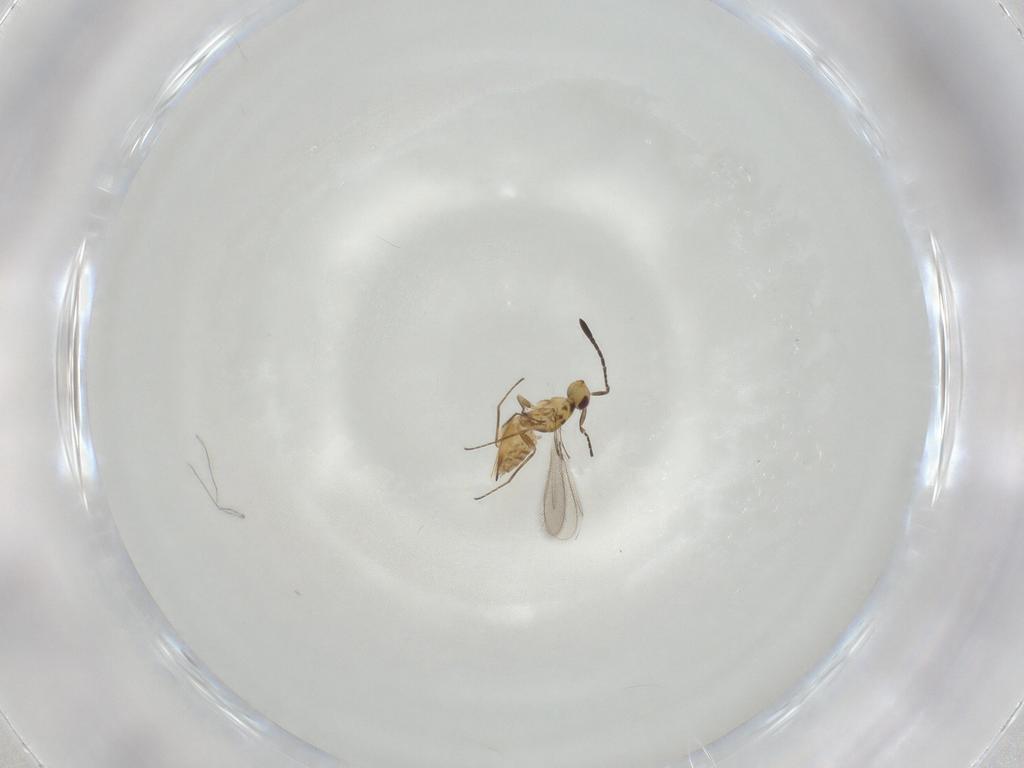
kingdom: Animalia
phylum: Arthropoda
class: Insecta
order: Hymenoptera
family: Mymaridae
